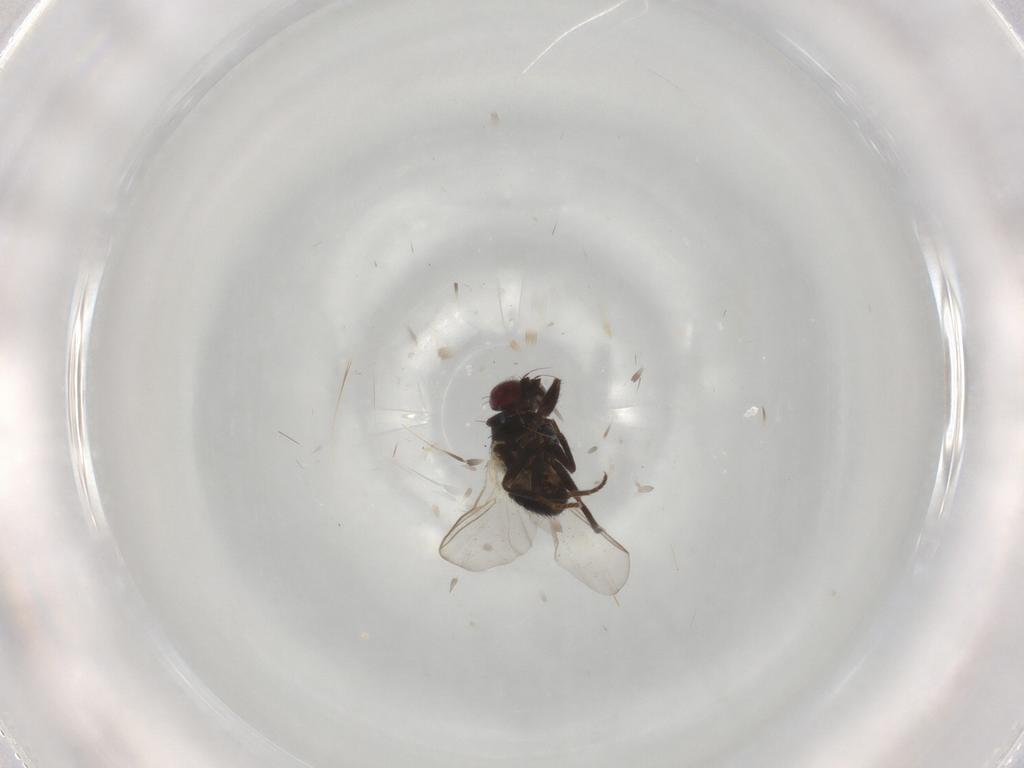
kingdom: Animalia
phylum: Arthropoda
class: Insecta
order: Diptera
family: Agromyzidae
